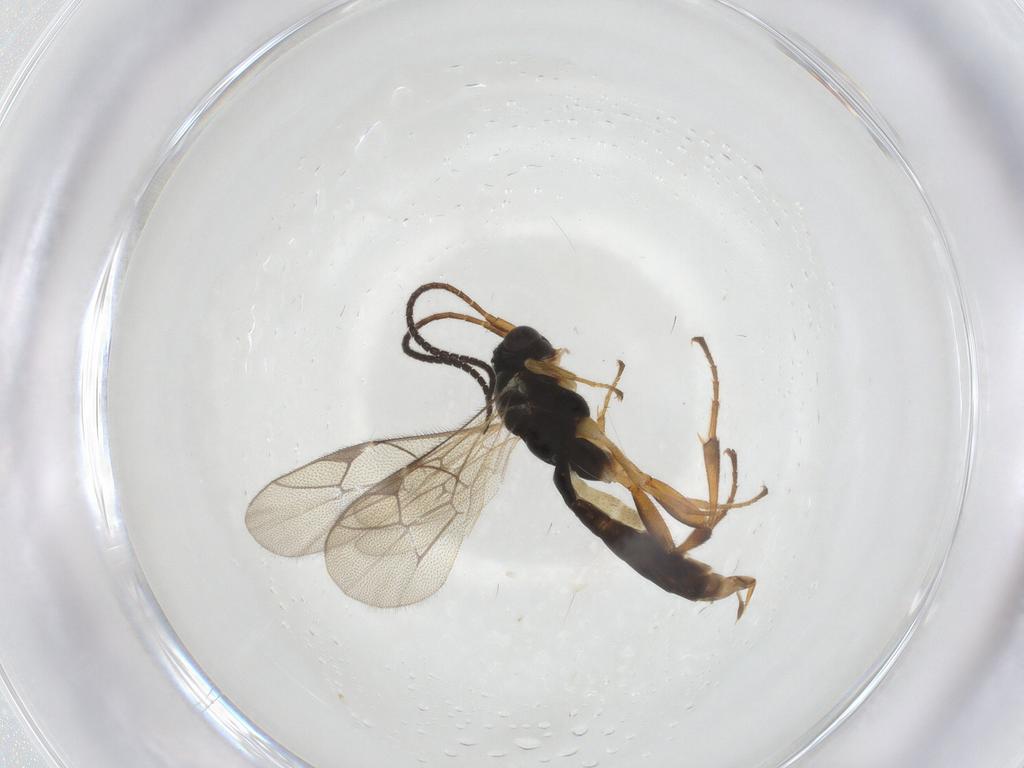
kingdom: Animalia
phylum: Arthropoda
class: Insecta
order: Hymenoptera
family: Ichneumonidae
